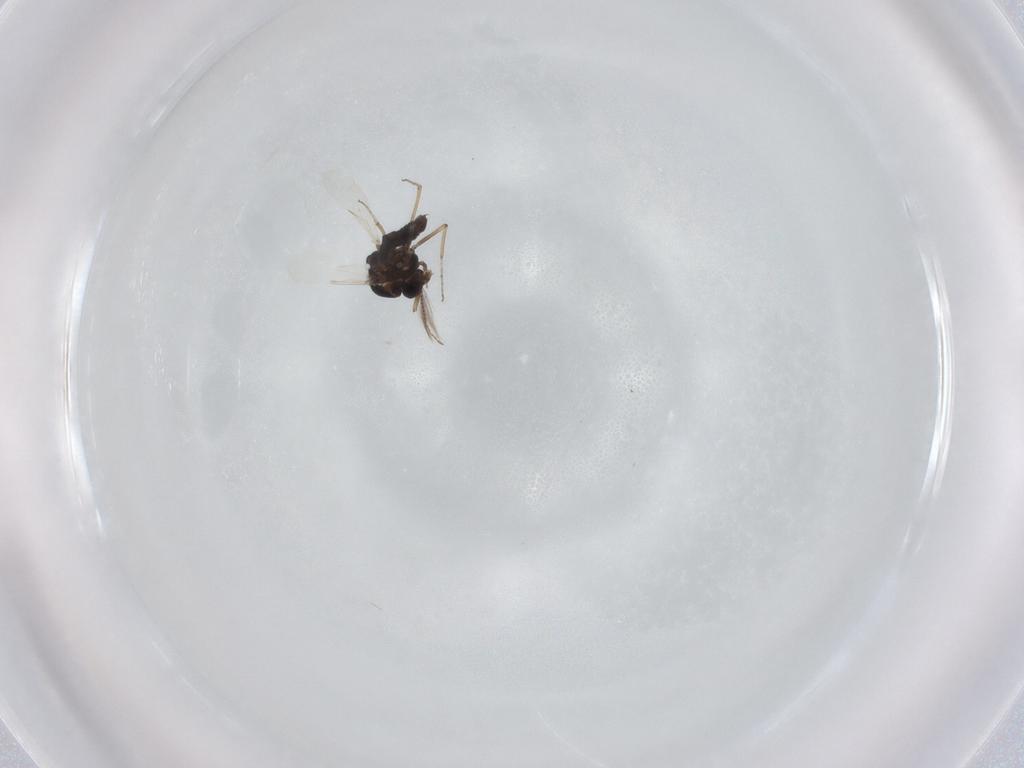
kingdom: Animalia
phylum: Arthropoda
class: Insecta
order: Diptera
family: Ceratopogonidae
